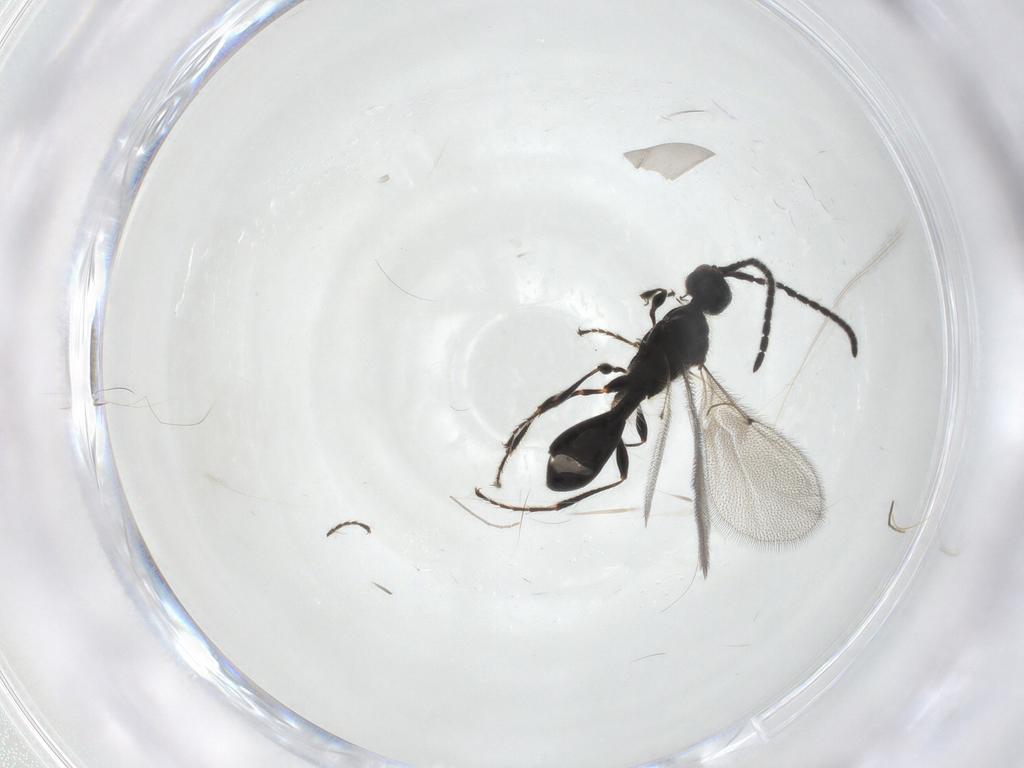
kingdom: Animalia
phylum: Arthropoda
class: Insecta
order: Hymenoptera
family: Diapriidae
